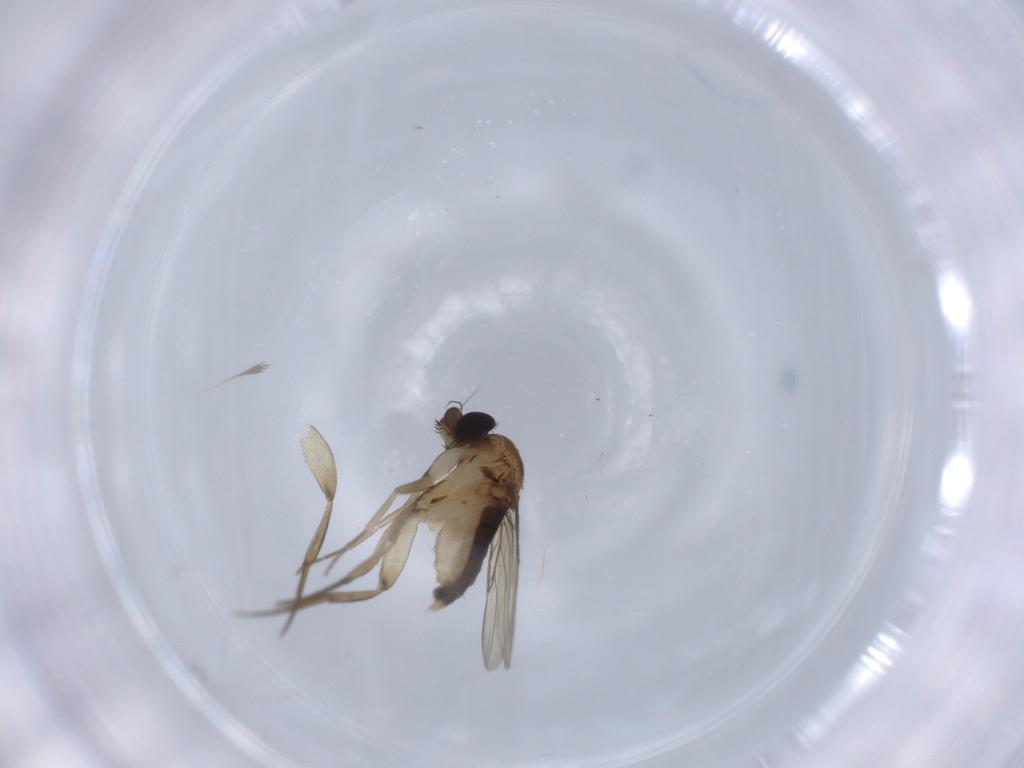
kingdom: Animalia
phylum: Arthropoda
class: Insecta
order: Diptera
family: Phoridae
